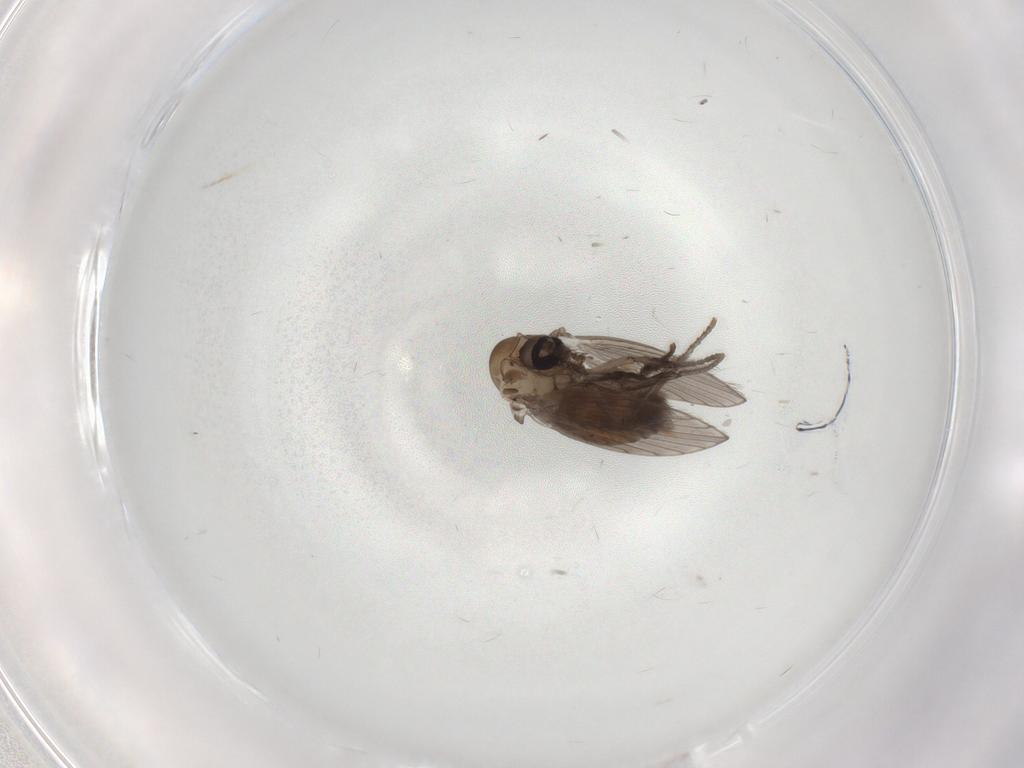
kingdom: Animalia
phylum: Arthropoda
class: Insecta
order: Diptera
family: Psychodidae
